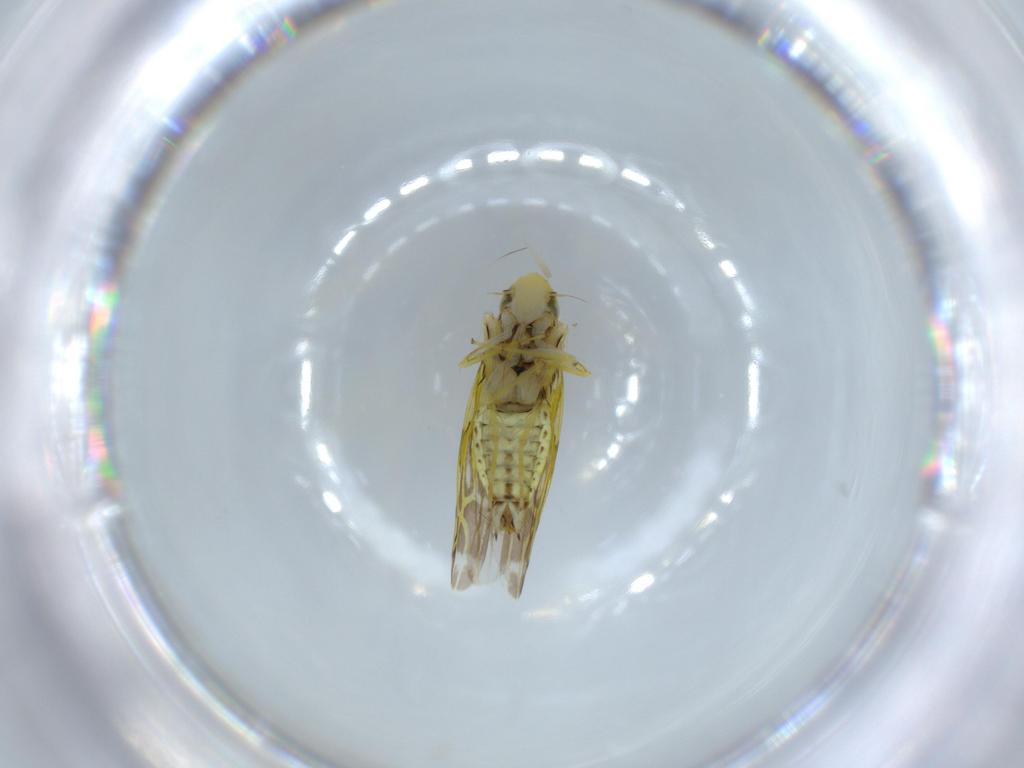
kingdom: Animalia
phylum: Arthropoda
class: Insecta
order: Hemiptera
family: Cicadellidae
